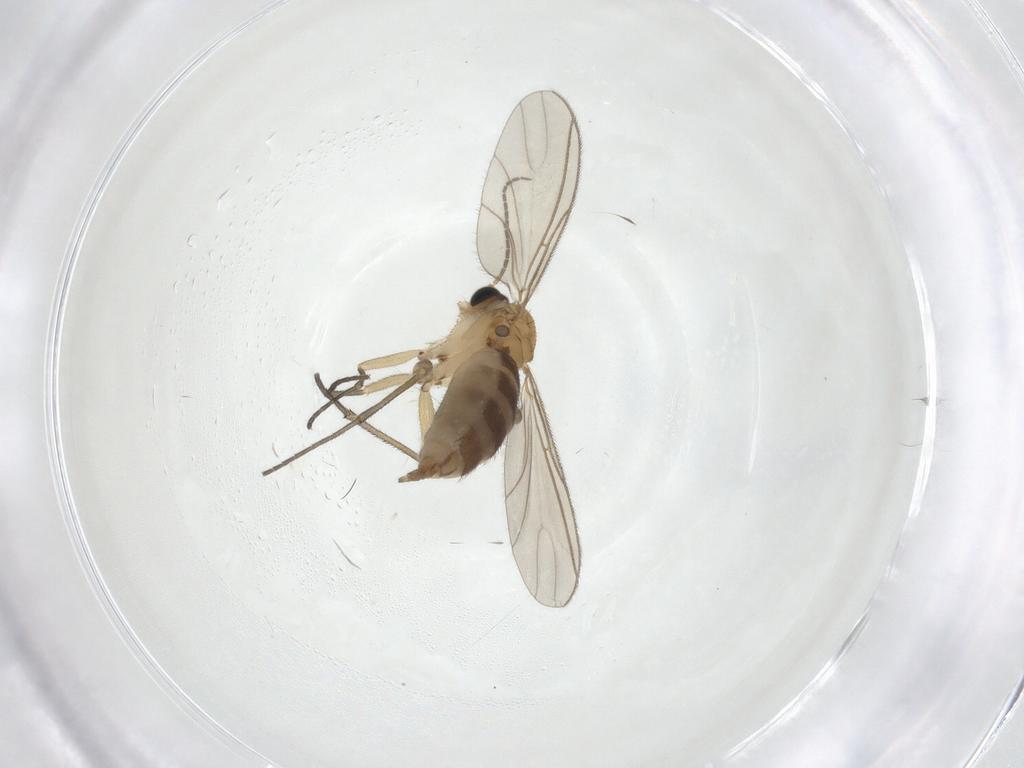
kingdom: Animalia
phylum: Arthropoda
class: Insecta
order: Diptera
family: Sciaridae
